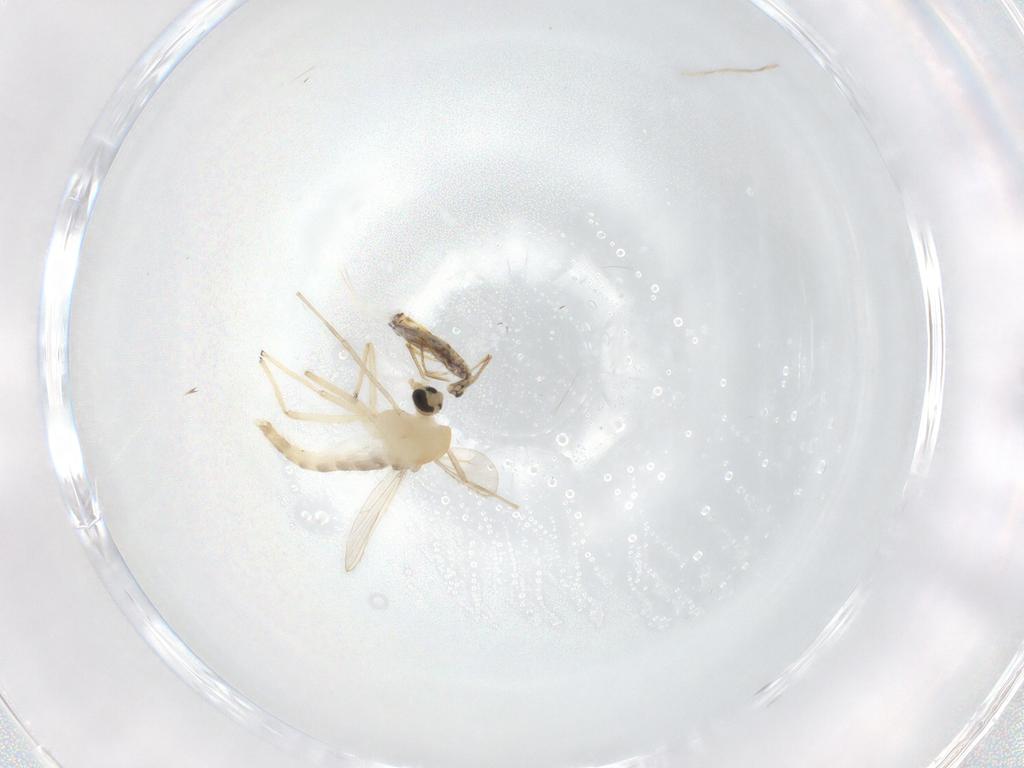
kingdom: Animalia
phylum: Arthropoda
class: Insecta
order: Diptera
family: Chironomidae
